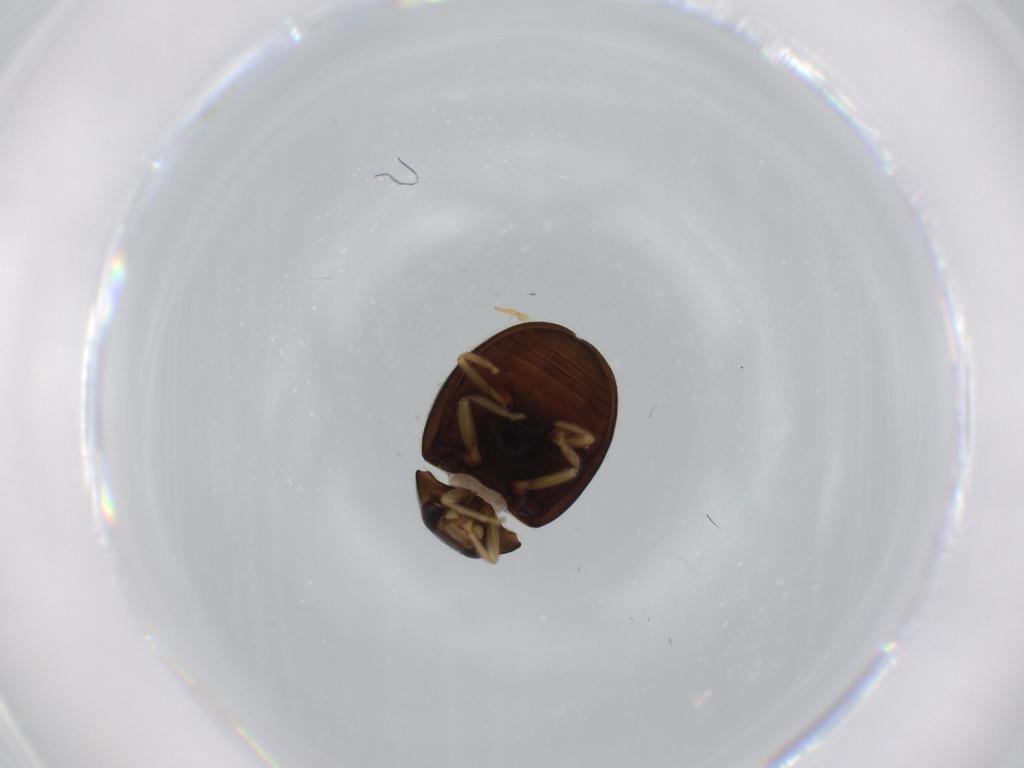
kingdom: Animalia
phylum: Arthropoda
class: Insecta
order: Coleoptera
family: Coccinellidae
